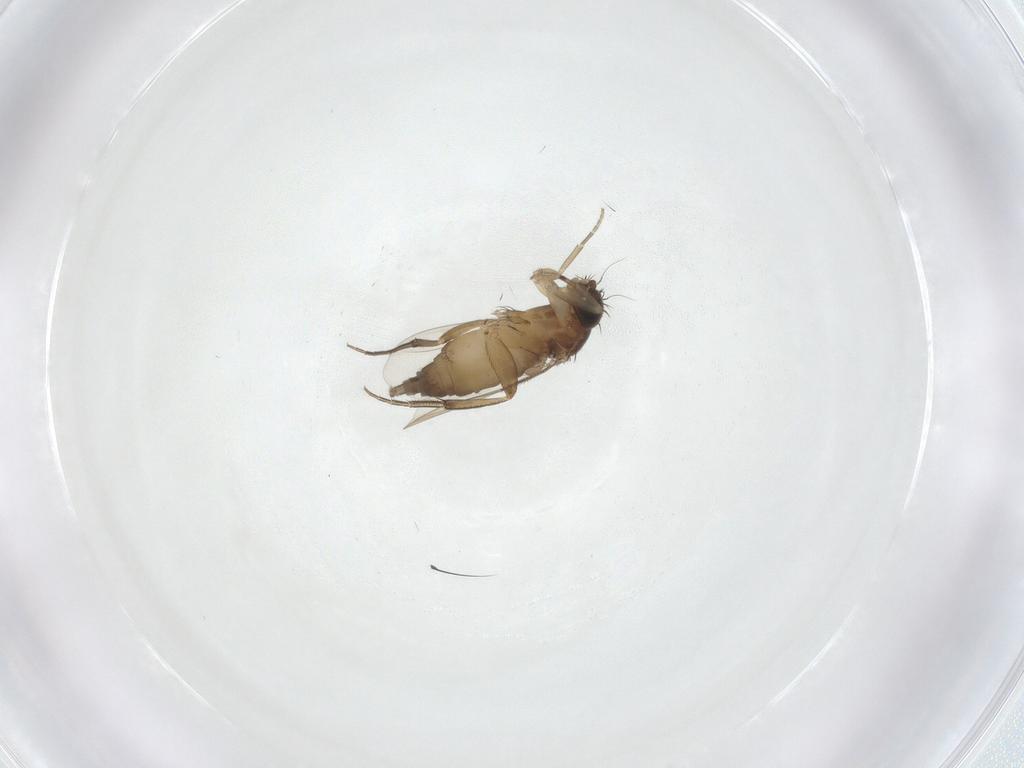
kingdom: Animalia
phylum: Arthropoda
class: Insecta
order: Diptera
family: Phoridae
